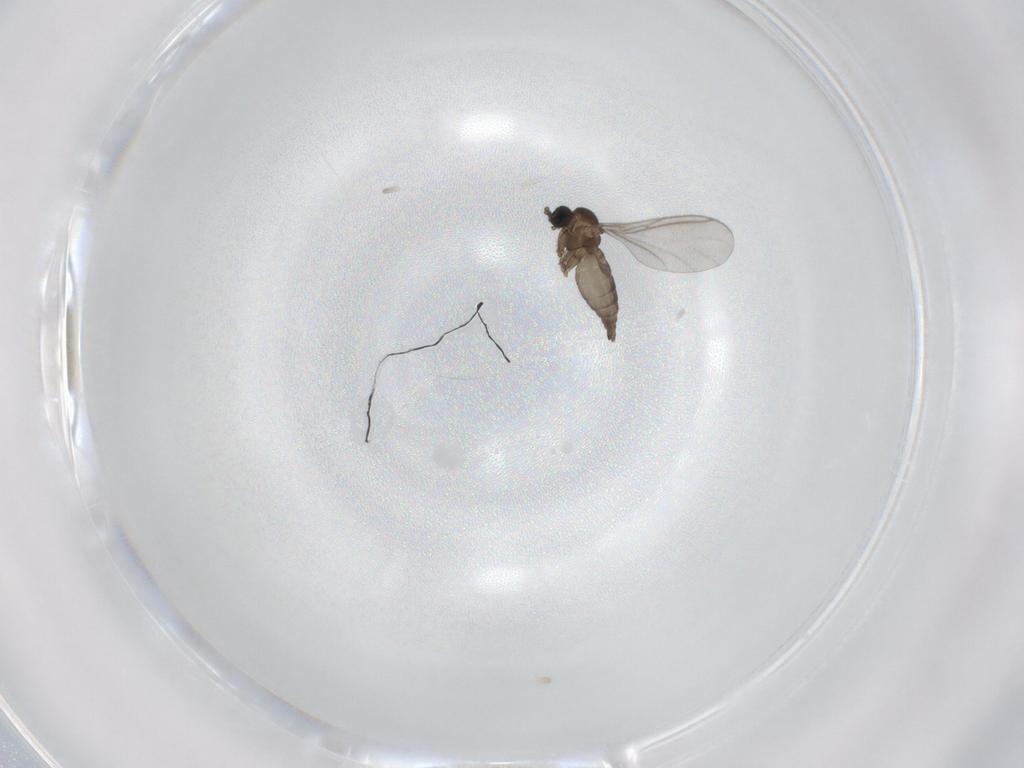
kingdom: Animalia
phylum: Arthropoda
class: Insecta
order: Diptera
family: Sciaridae
